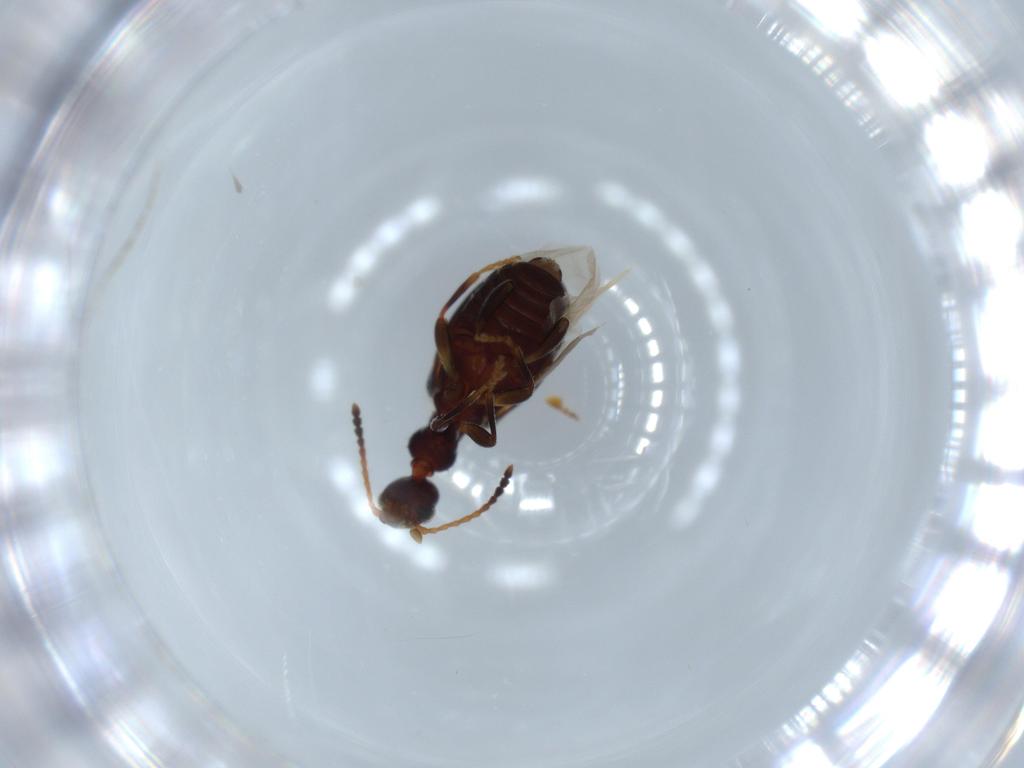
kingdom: Animalia
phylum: Arthropoda
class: Insecta
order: Coleoptera
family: Anthicidae
